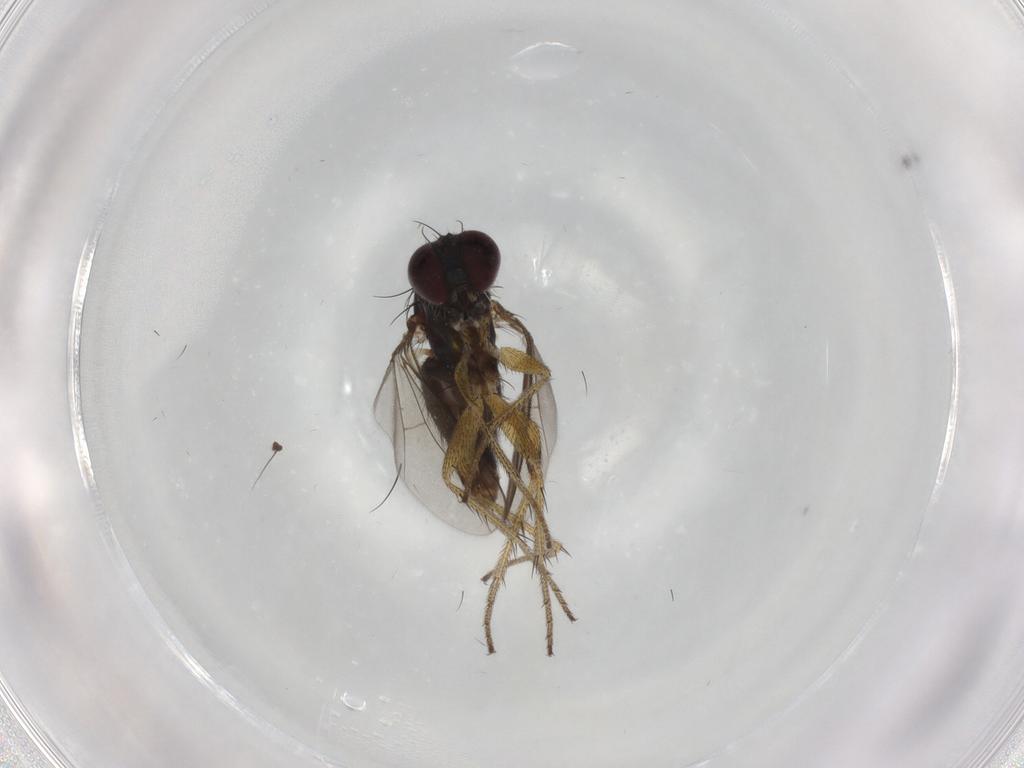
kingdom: Animalia
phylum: Arthropoda
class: Insecta
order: Diptera
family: Dolichopodidae
